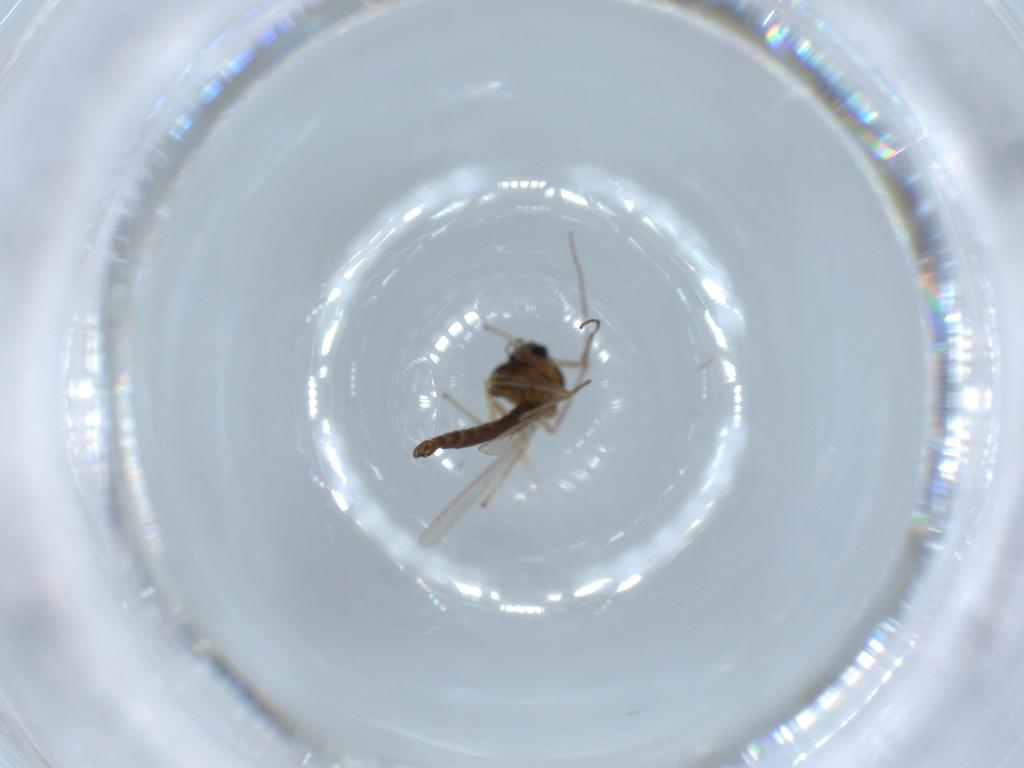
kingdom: Animalia
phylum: Arthropoda
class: Insecta
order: Diptera
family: Chironomidae
